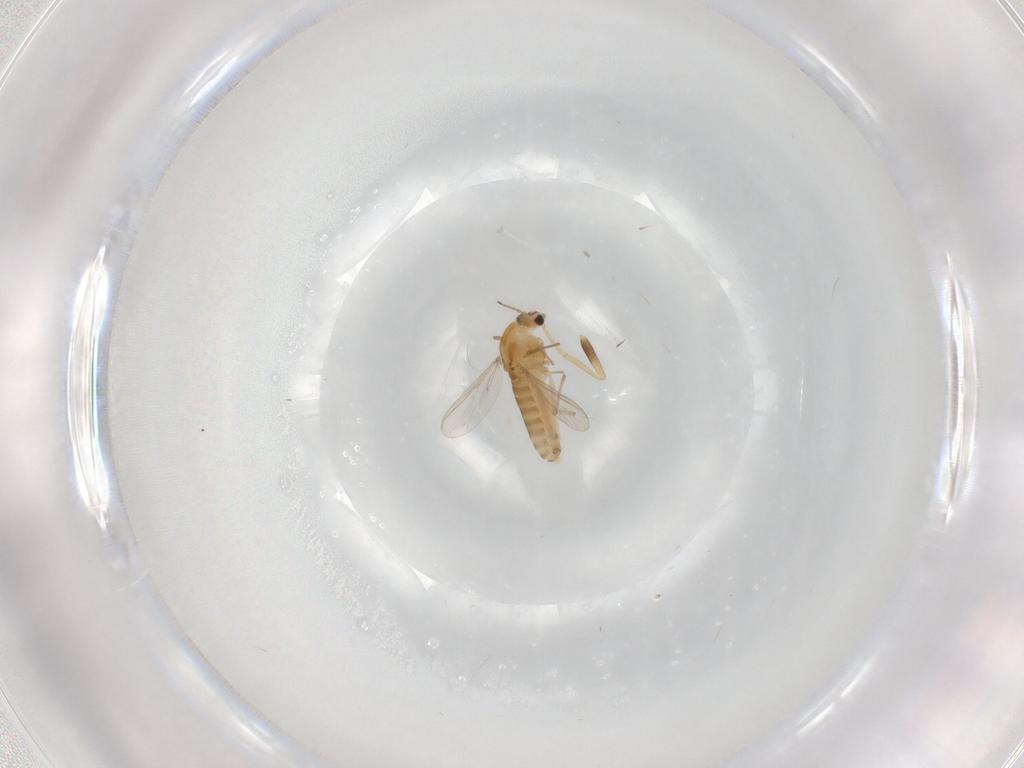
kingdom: Animalia
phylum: Arthropoda
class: Insecta
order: Diptera
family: Chironomidae
